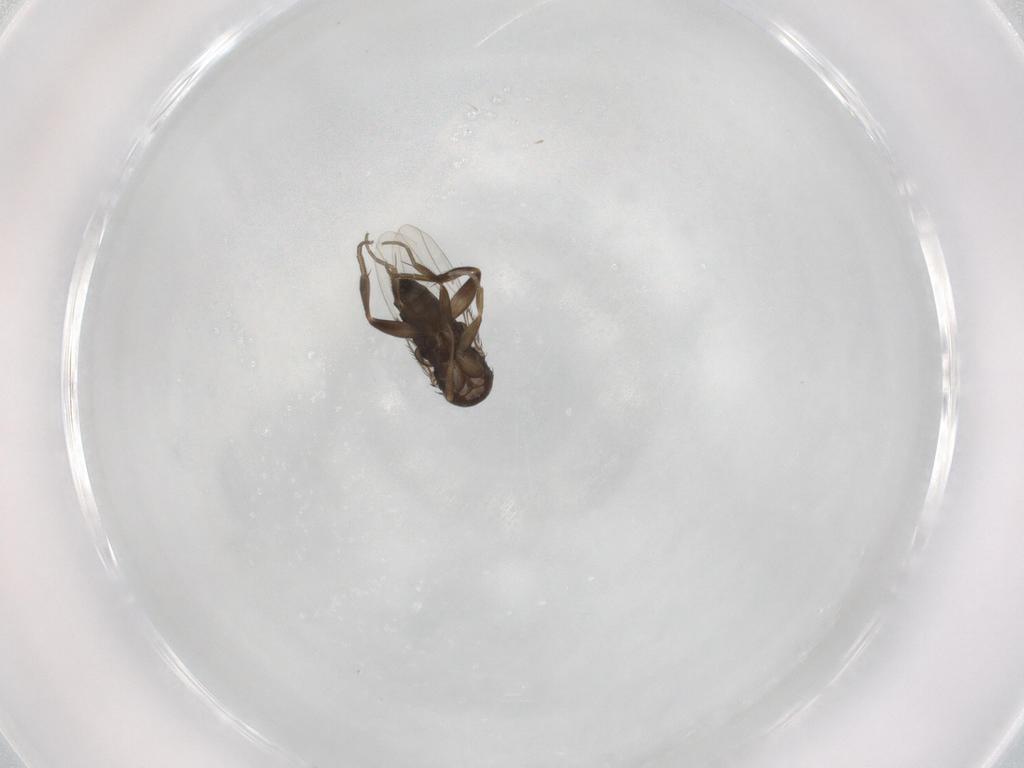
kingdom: Animalia
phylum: Arthropoda
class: Insecta
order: Diptera
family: Phoridae
